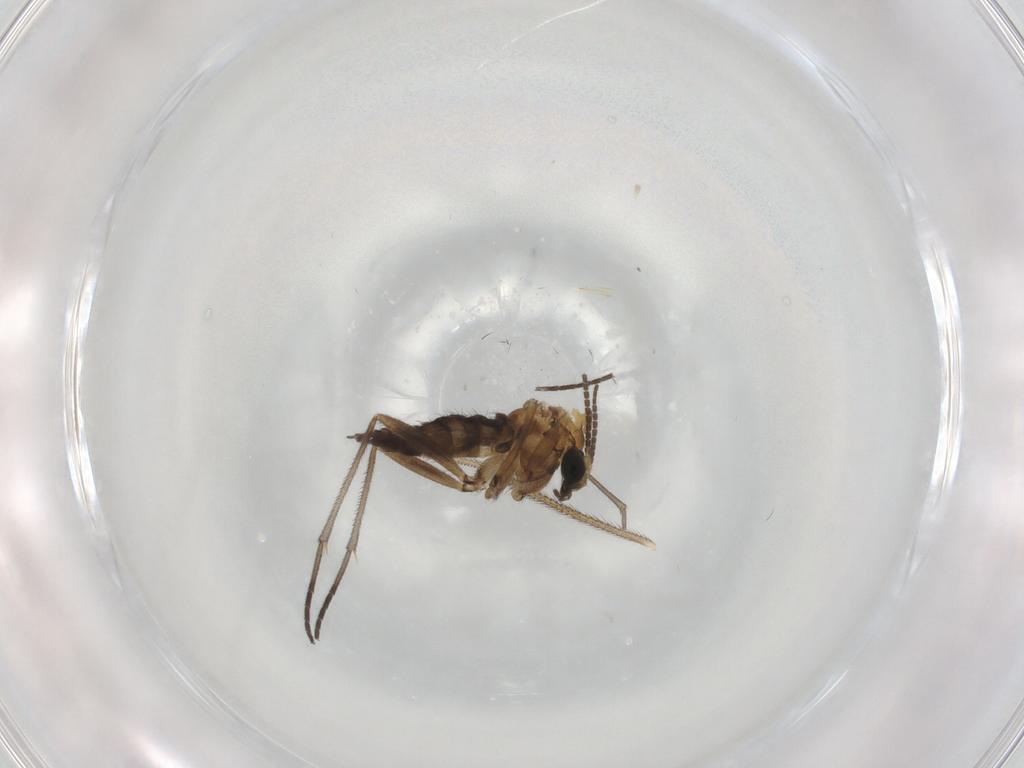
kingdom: Animalia
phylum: Arthropoda
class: Insecta
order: Diptera
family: Sciaridae
